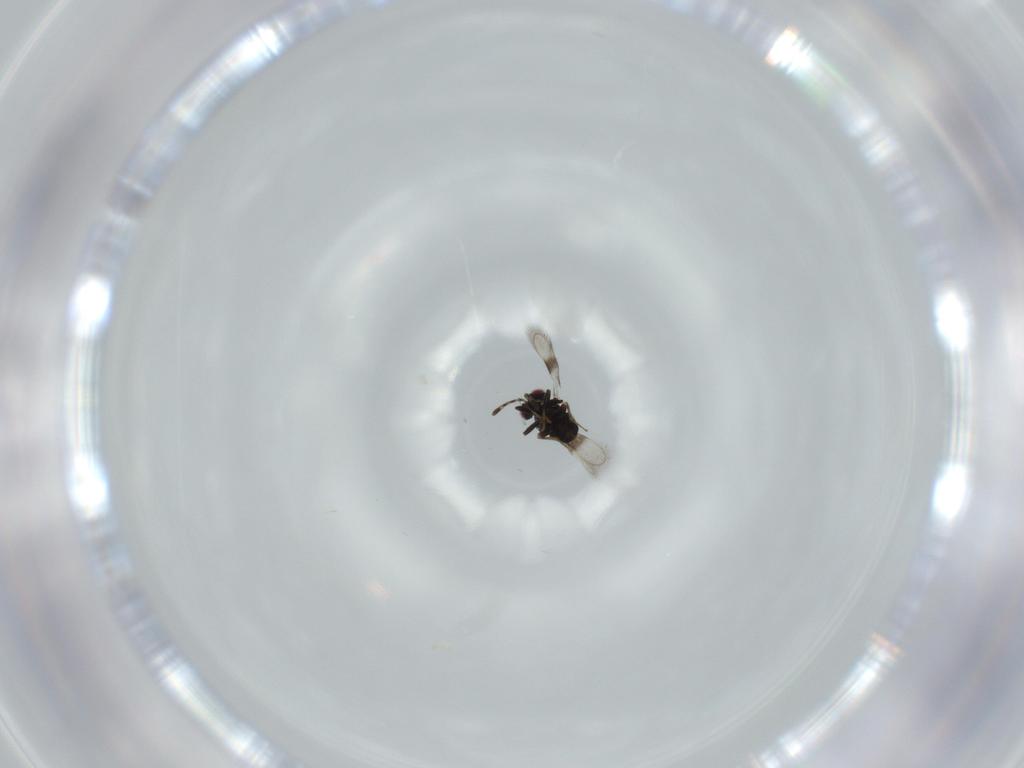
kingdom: Animalia
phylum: Arthropoda
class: Insecta
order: Hymenoptera
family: Azotidae
